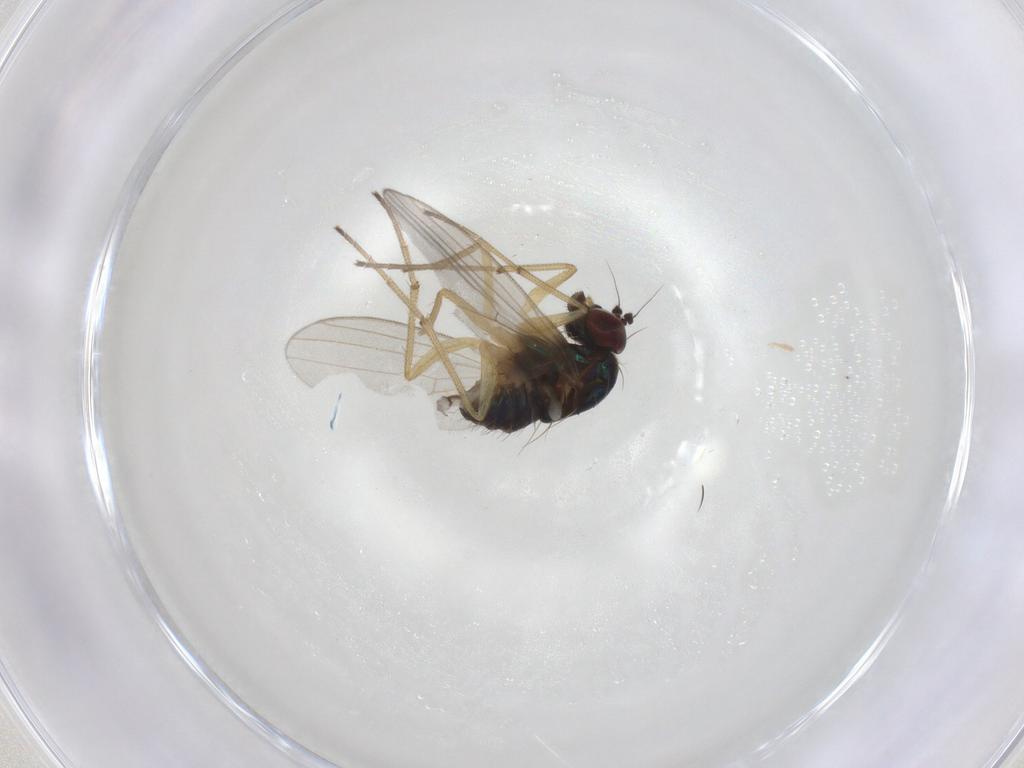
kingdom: Animalia
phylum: Arthropoda
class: Insecta
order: Diptera
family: Dolichopodidae
